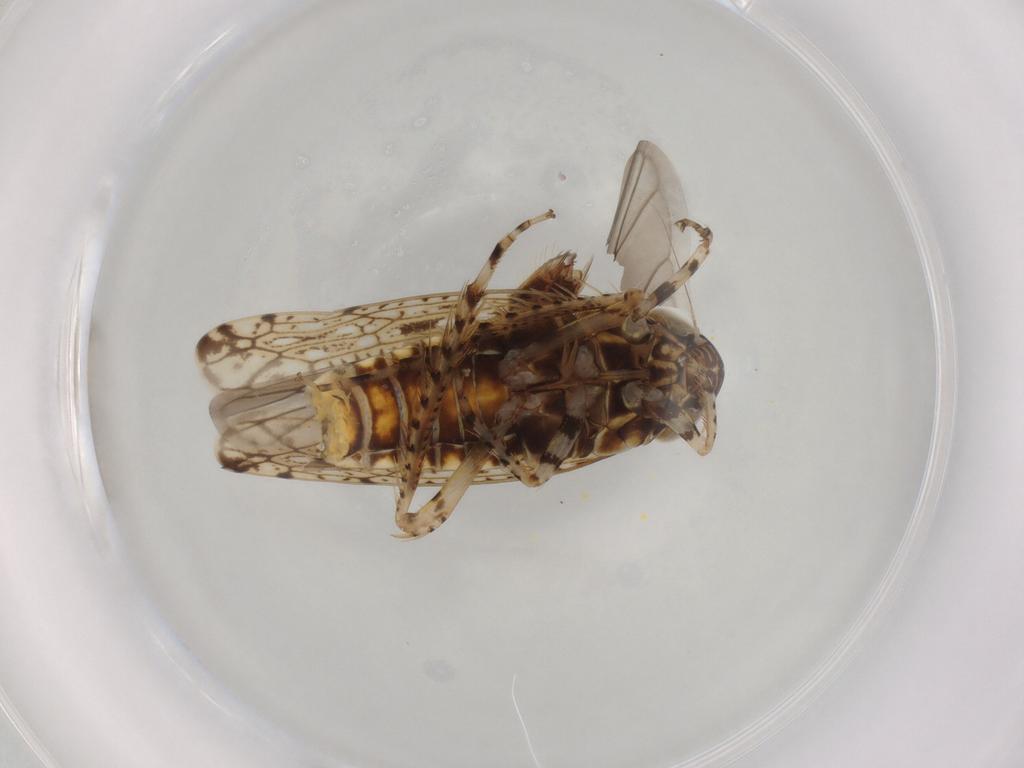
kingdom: Animalia
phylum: Arthropoda
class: Insecta
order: Hemiptera
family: Cicadellidae
